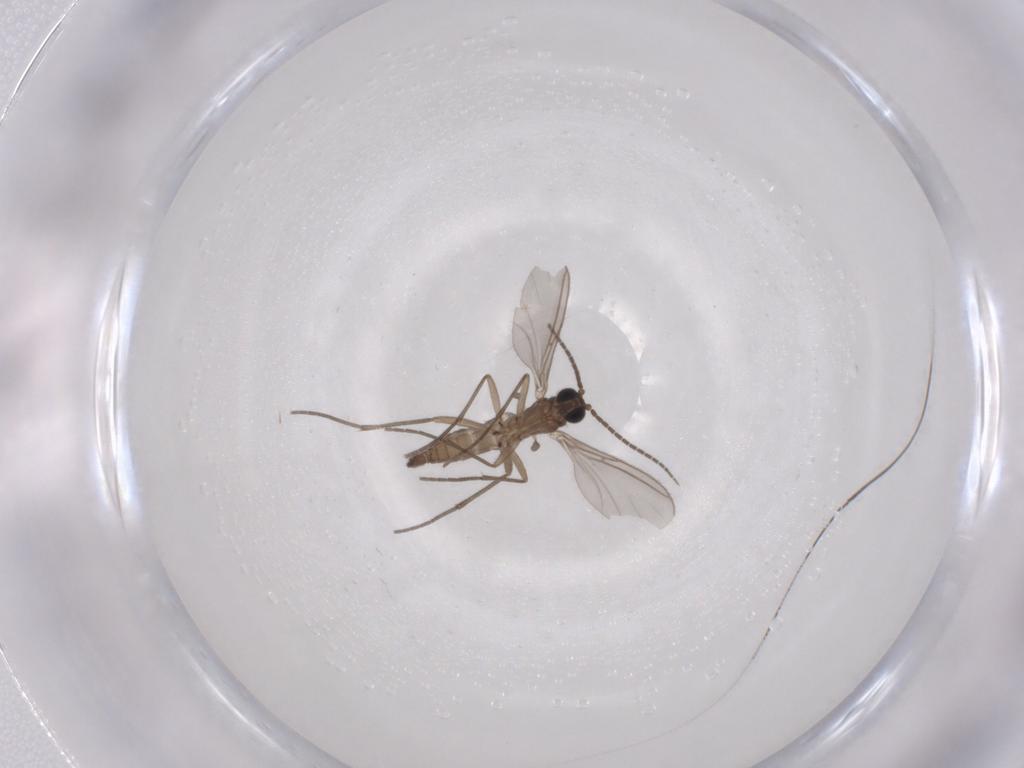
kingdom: Animalia
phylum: Arthropoda
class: Insecta
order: Diptera
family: Sciaridae
